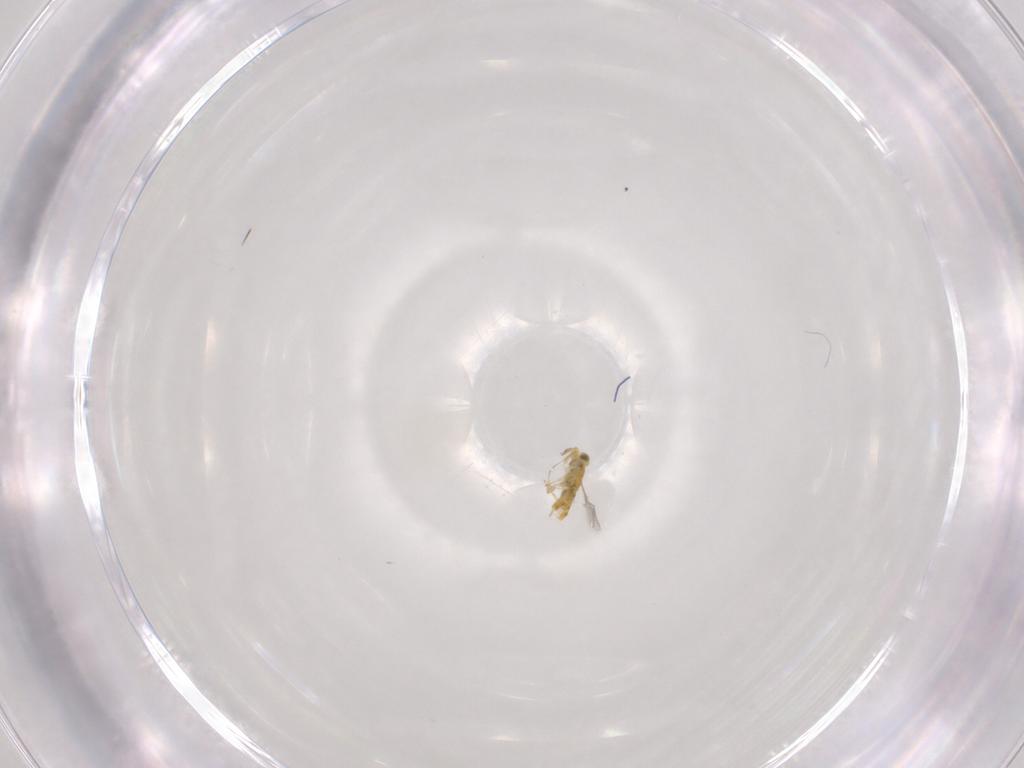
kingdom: Animalia
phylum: Arthropoda
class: Insecta
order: Hymenoptera
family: Aphelinidae
